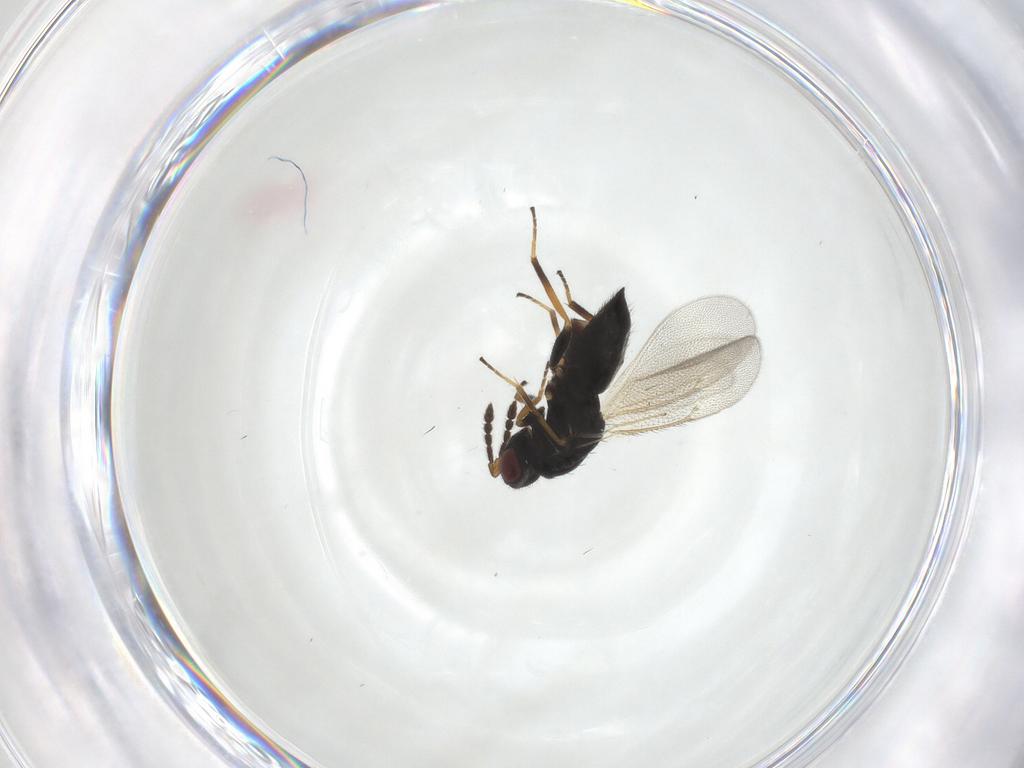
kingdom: Animalia
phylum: Arthropoda
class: Insecta
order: Hymenoptera
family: Eulophidae
